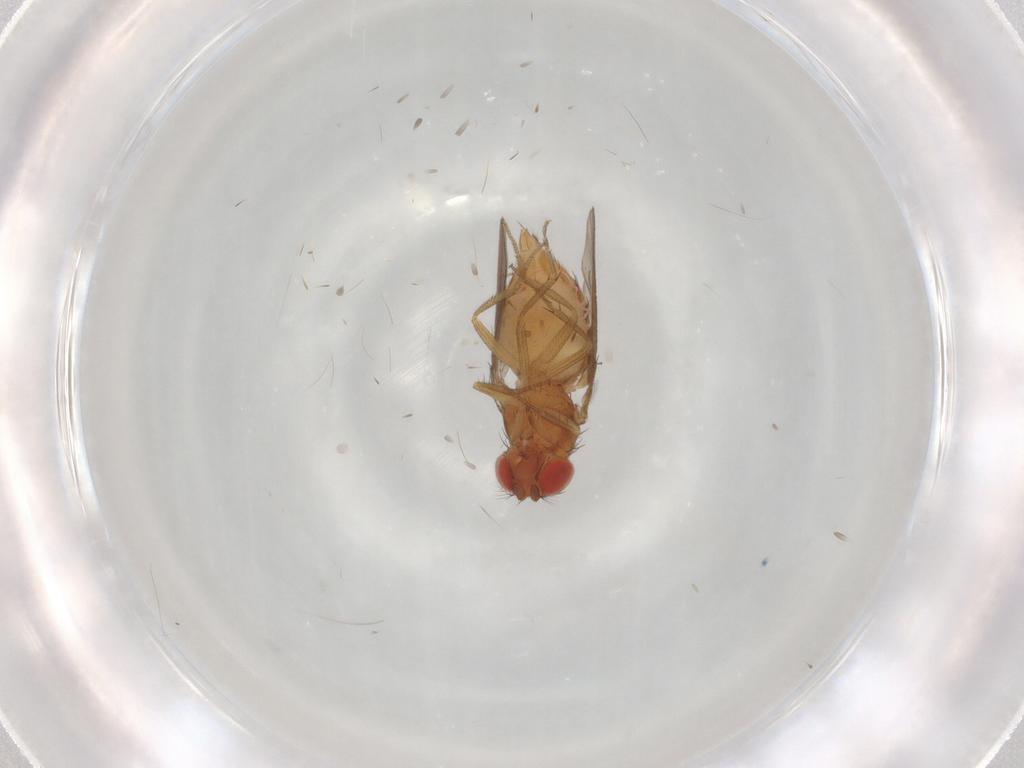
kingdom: Animalia
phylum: Arthropoda
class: Insecta
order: Diptera
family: Drosophilidae
